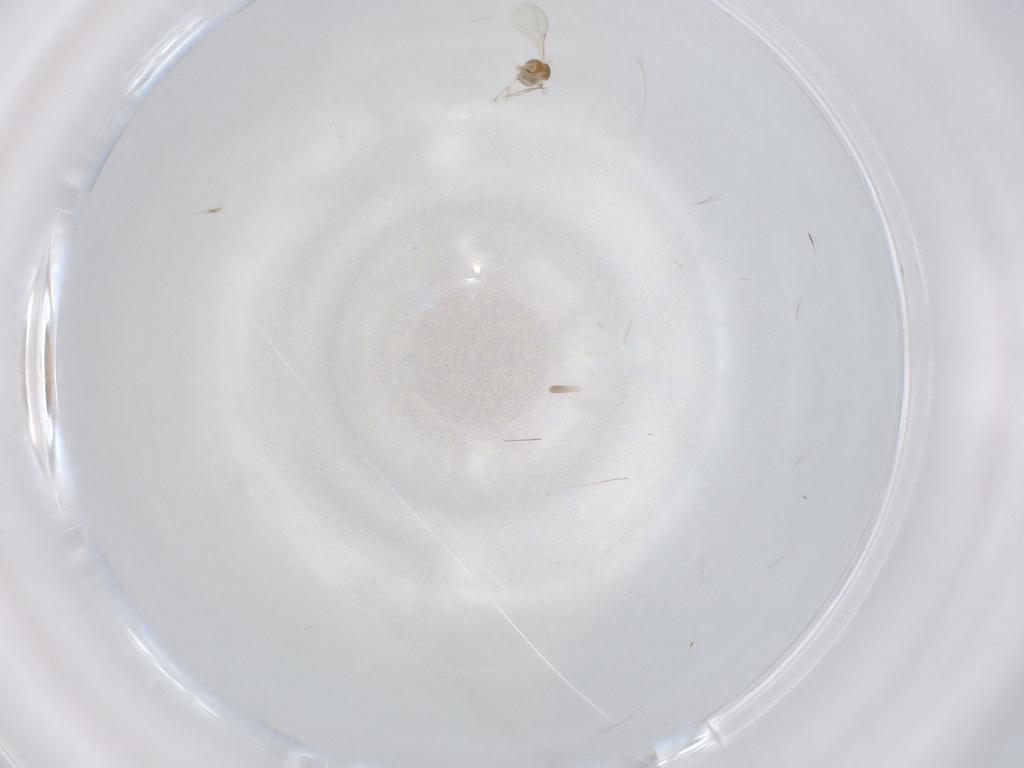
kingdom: Animalia
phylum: Arthropoda
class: Insecta
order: Diptera
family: Cecidomyiidae
